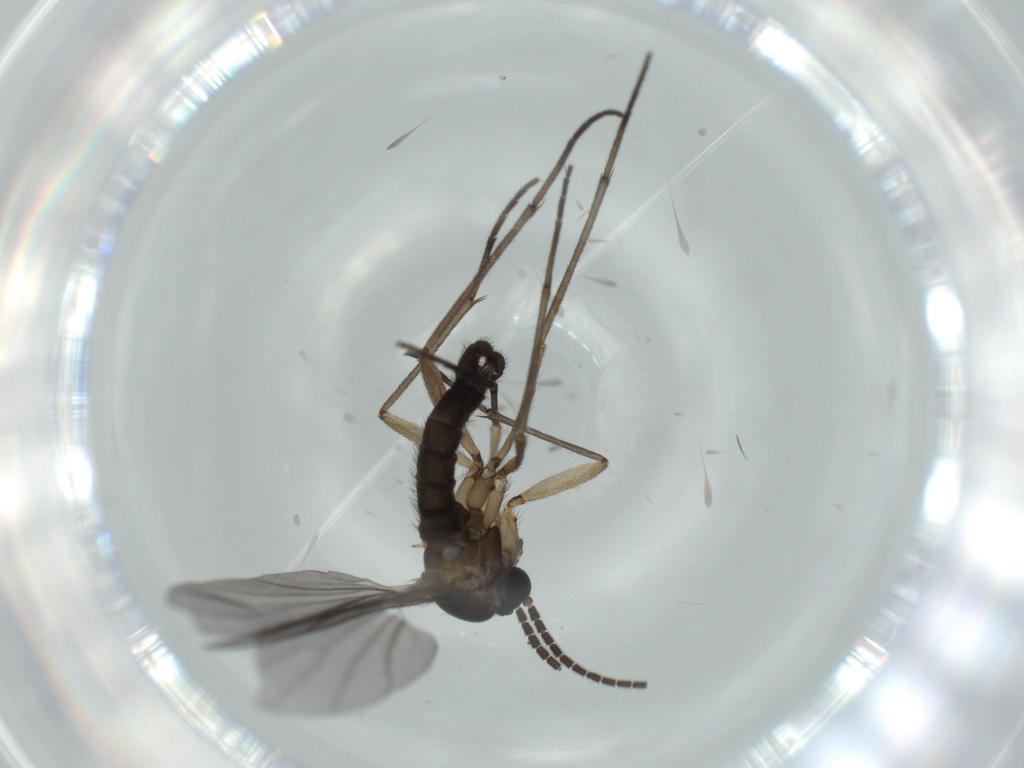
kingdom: Animalia
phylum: Arthropoda
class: Insecta
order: Diptera
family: Sciaridae
